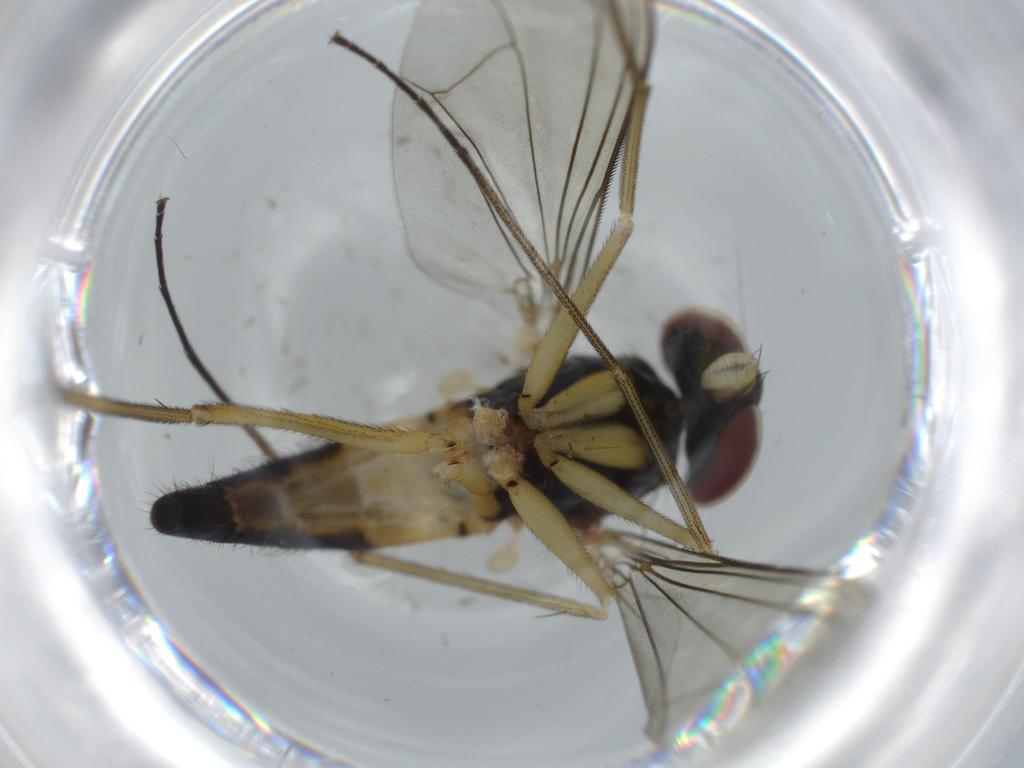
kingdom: Animalia
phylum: Arthropoda
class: Insecta
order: Diptera
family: Dolichopodidae
